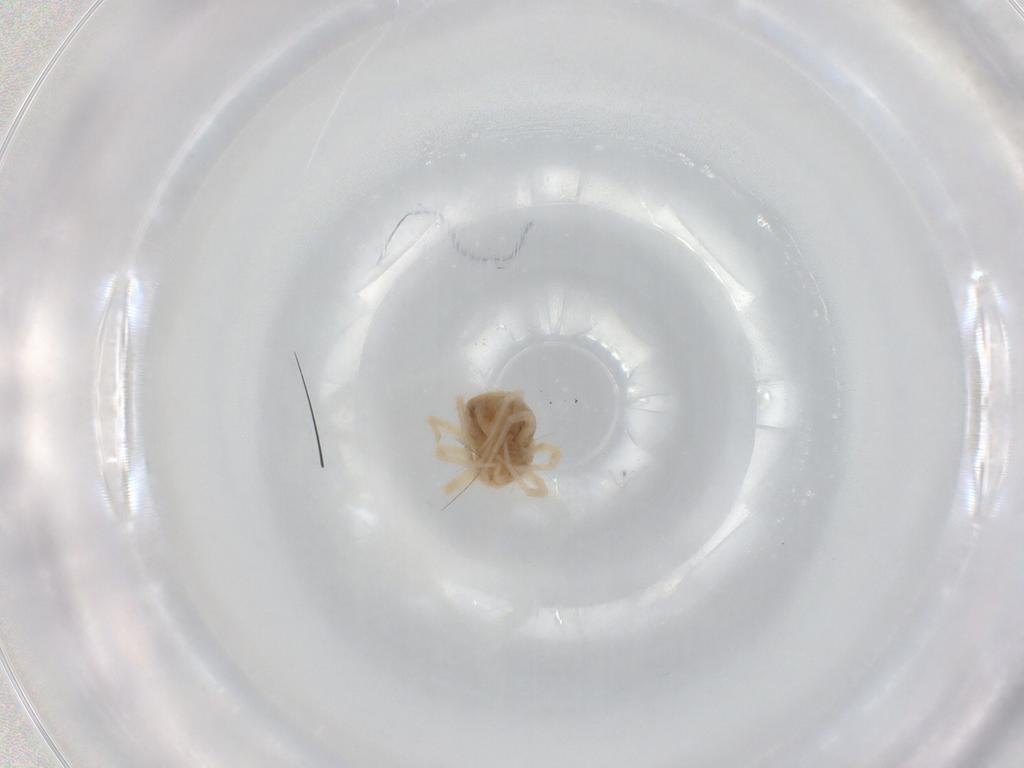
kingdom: Animalia
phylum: Arthropoda
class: Arachnida
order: Trombidiformes
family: Anystidae
